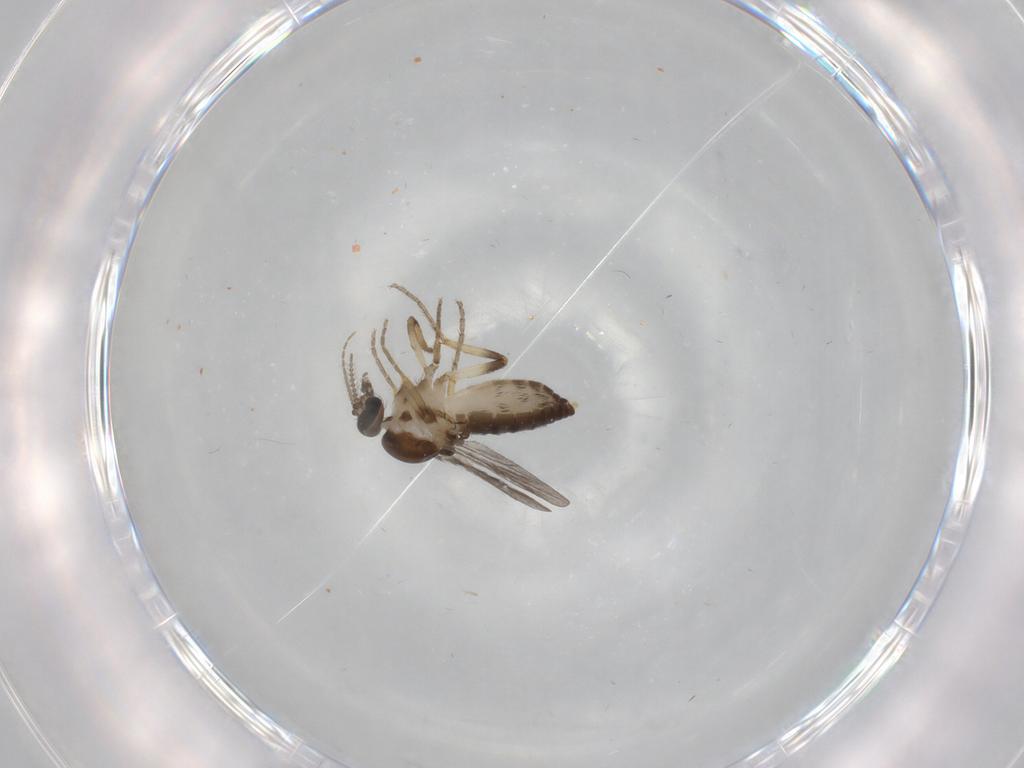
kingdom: Animalia
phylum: Arthropoda
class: Insecta
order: Diptera
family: Ceratopogonidae
